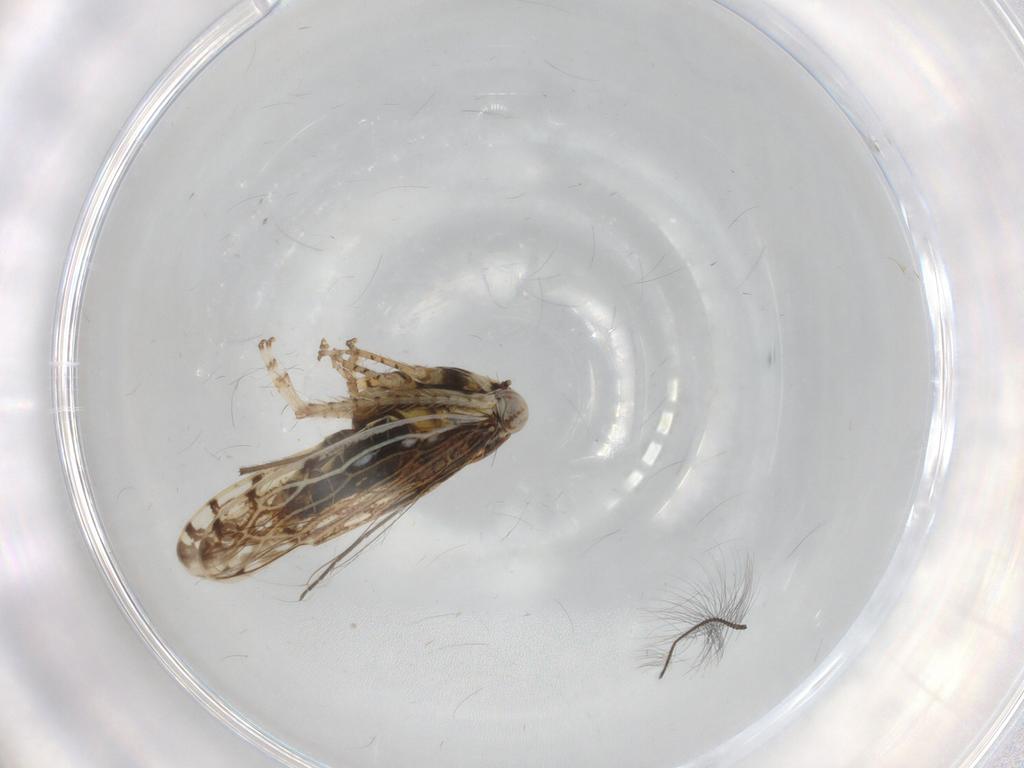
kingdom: Animalia
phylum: Arthropoda
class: Insecta
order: Hemiptera
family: Cicadellidae
